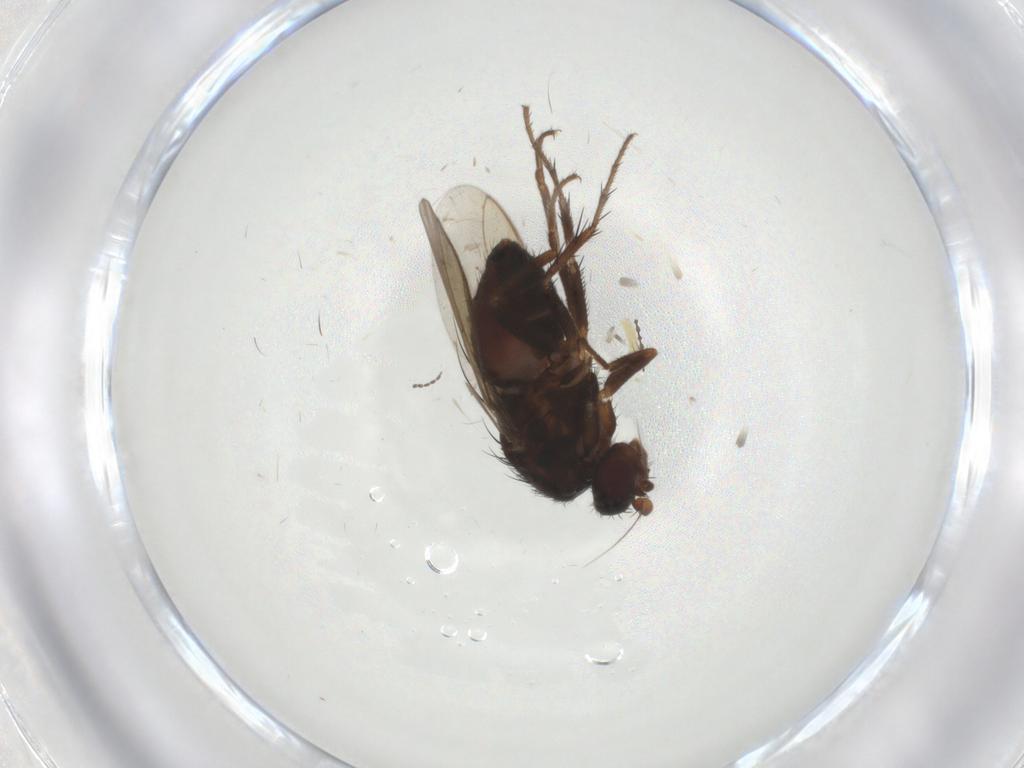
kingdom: Animalia
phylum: Arthropoda
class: Insecta
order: Diptera
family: Sphaeroceridae
